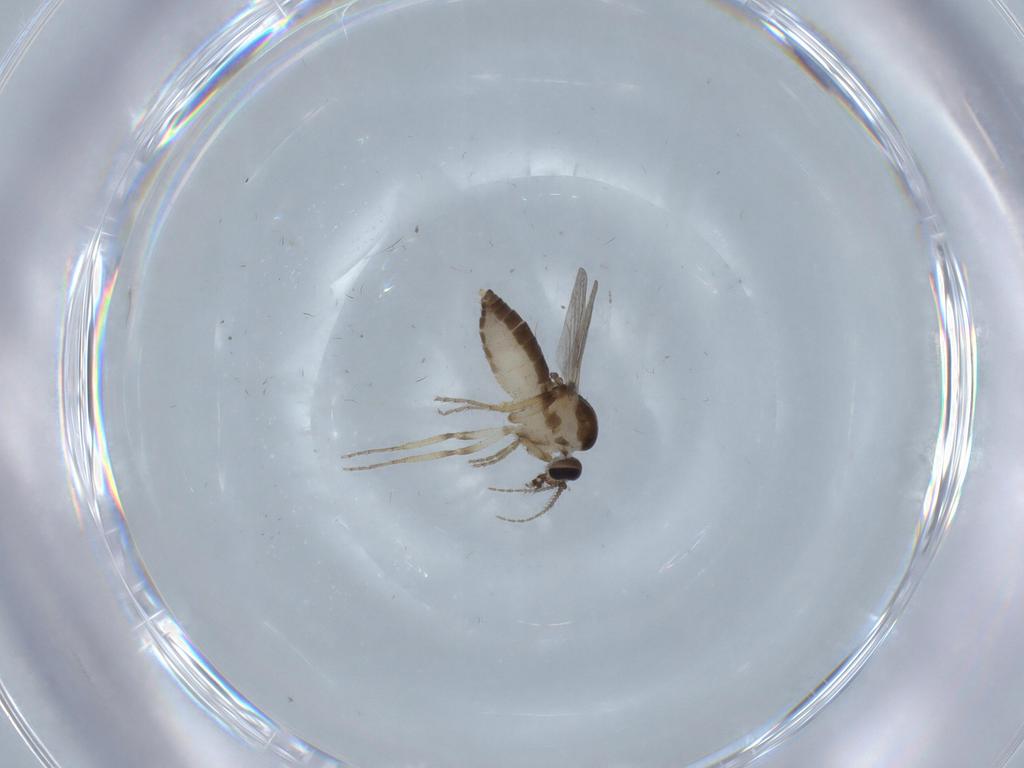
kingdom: Animalia
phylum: Arthropoda
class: Insecta
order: Diptera
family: Ceratopogonidae
